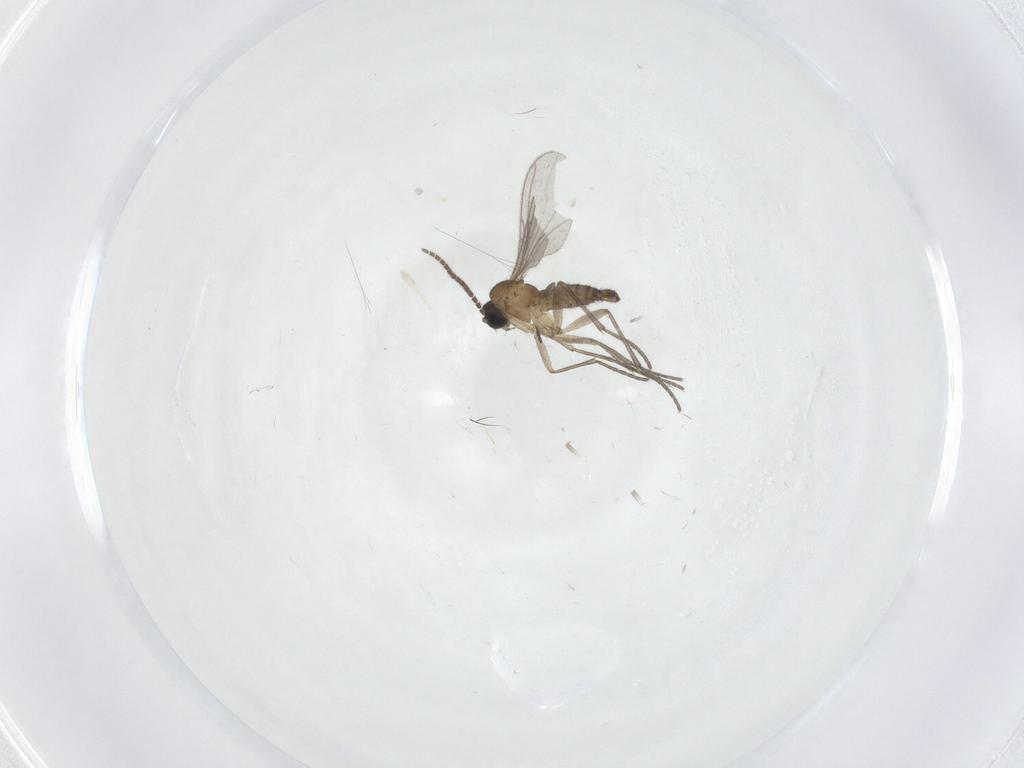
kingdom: Animalia
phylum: Arthropoda
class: Insecta
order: Diptera
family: Sciaridae
